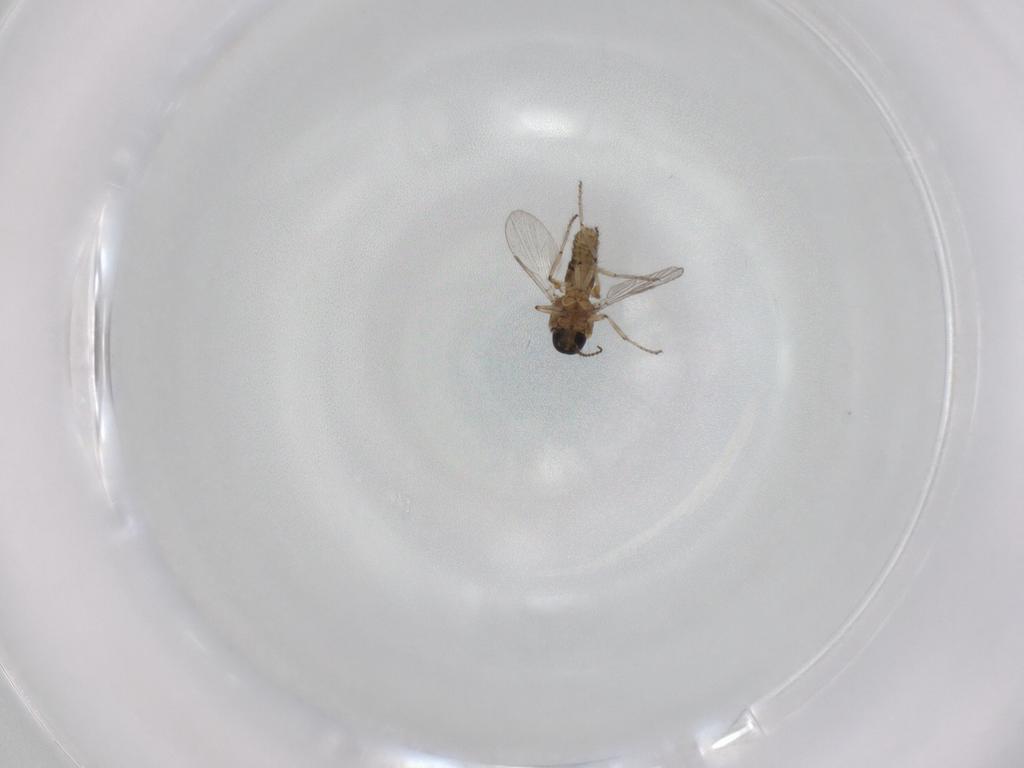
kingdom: Animalia
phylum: Arthropoda
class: Insecta
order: Diptera
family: Ceratopogonidae
